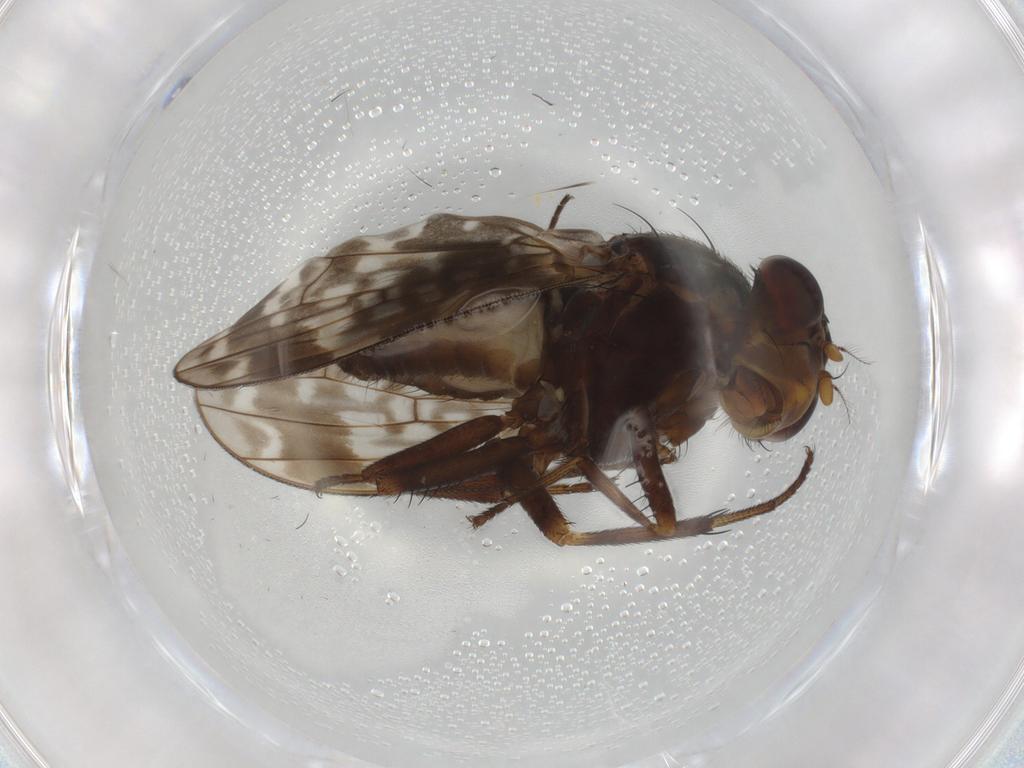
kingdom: Animalia
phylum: Arthropoda
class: Insecta
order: Diptera
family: Chironomidae
